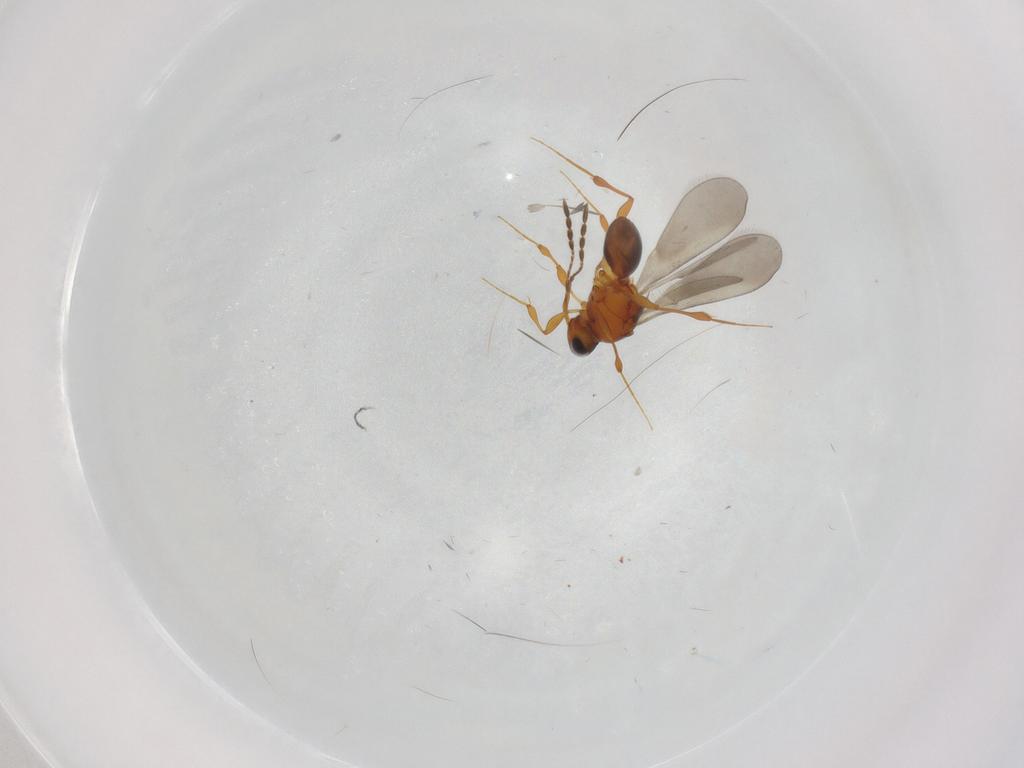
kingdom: Animalia
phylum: Arthropoda
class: Insecta
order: Hymenoptera
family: Platygastridae
